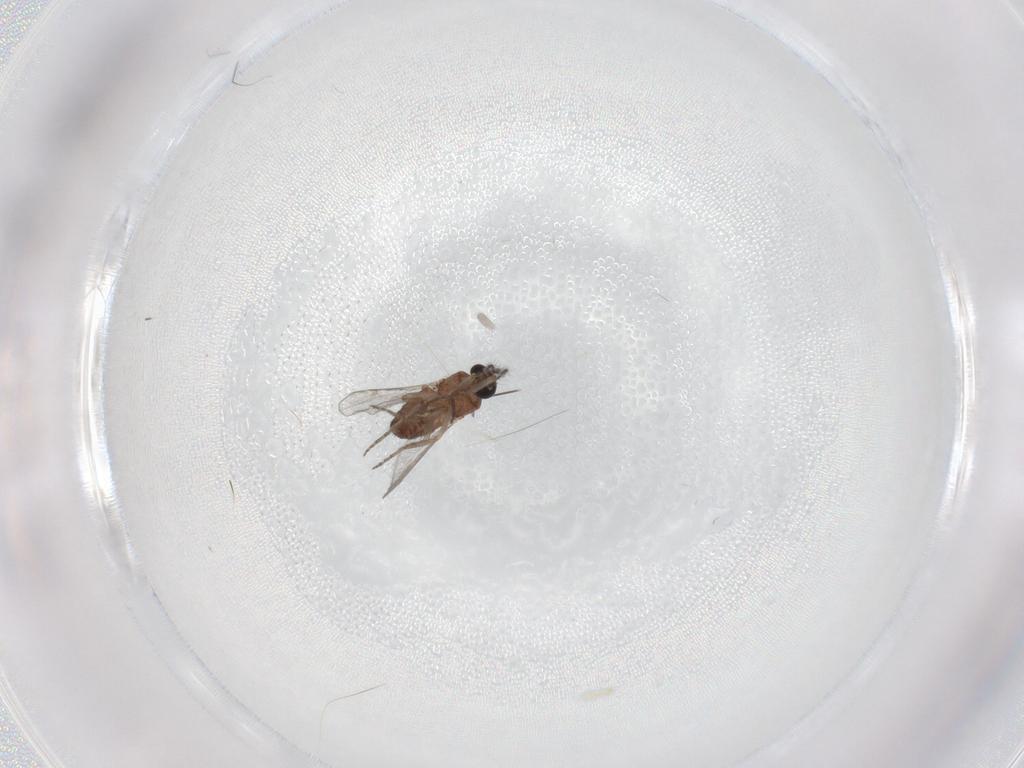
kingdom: Animalia
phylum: Arthropoda
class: Insecta
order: Diptera
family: Ceratopogonidae
